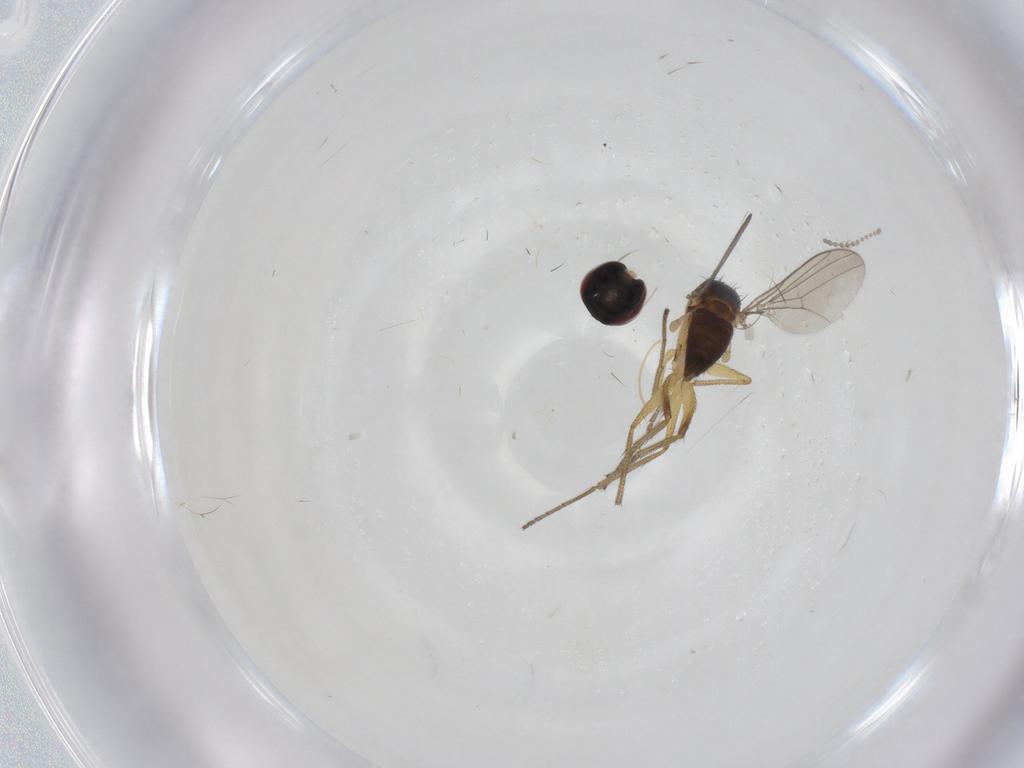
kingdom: Animalia
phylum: Arthropoda
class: Insecta
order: Diptera
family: Dolichopodidae
